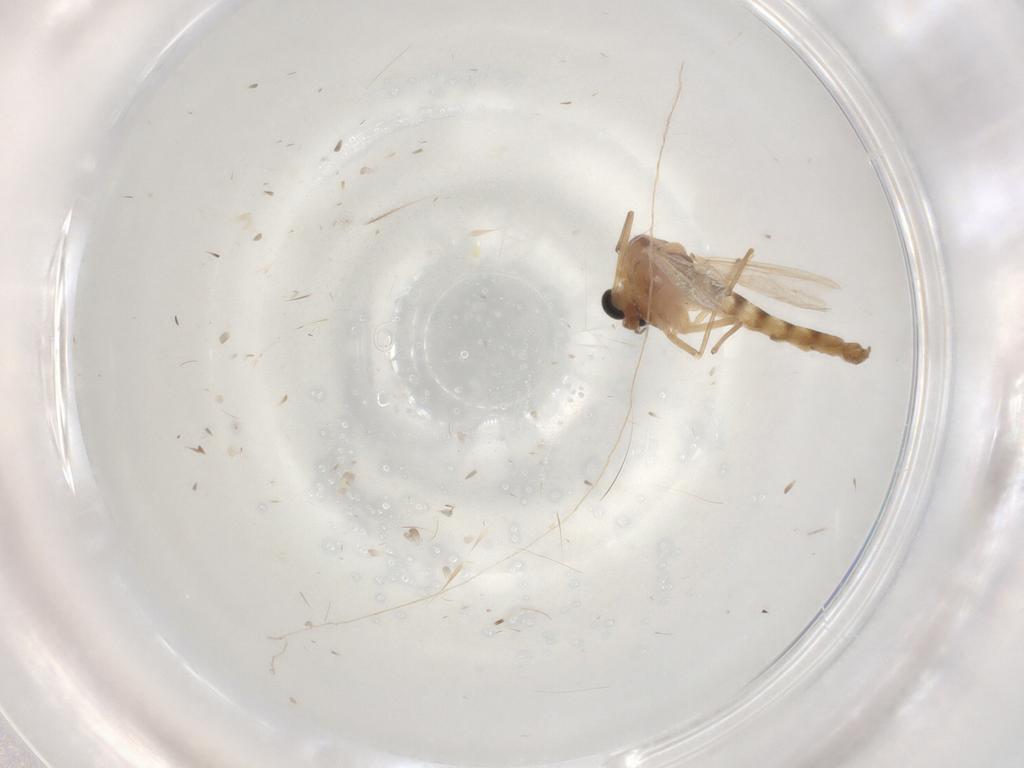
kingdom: Animalia
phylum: Arthropoda
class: Insecta
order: Diptera
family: Chironomidae
